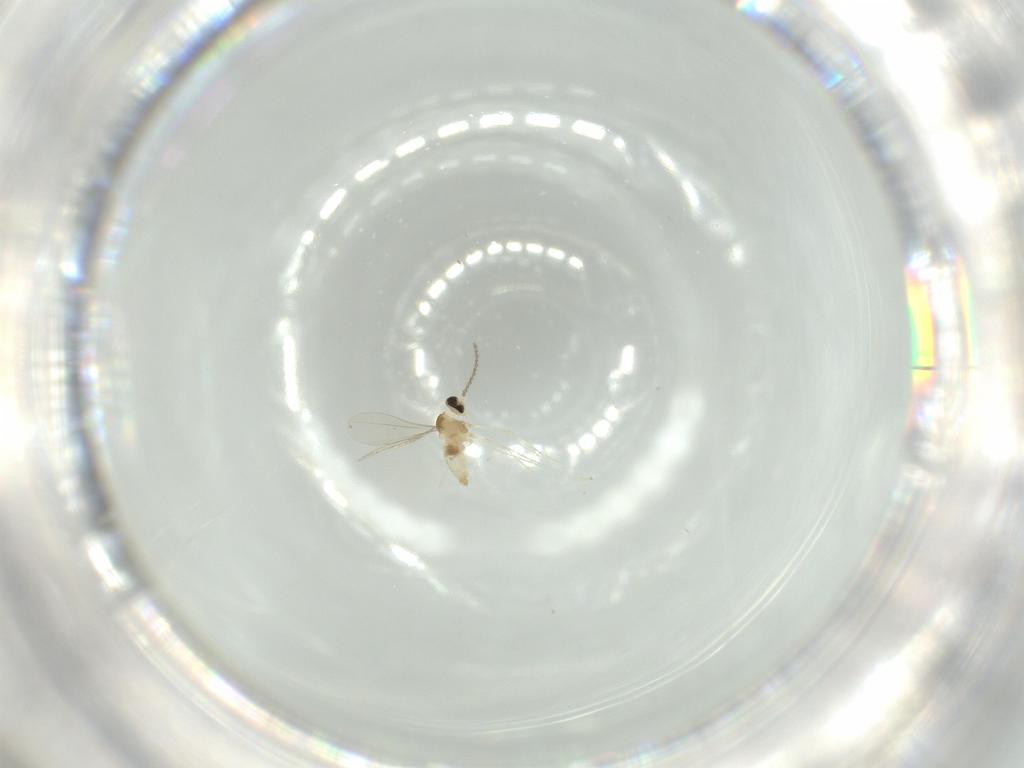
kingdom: Animalia
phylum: Arthropoda
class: Insecta
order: Diptera
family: Cecidomyiidae
